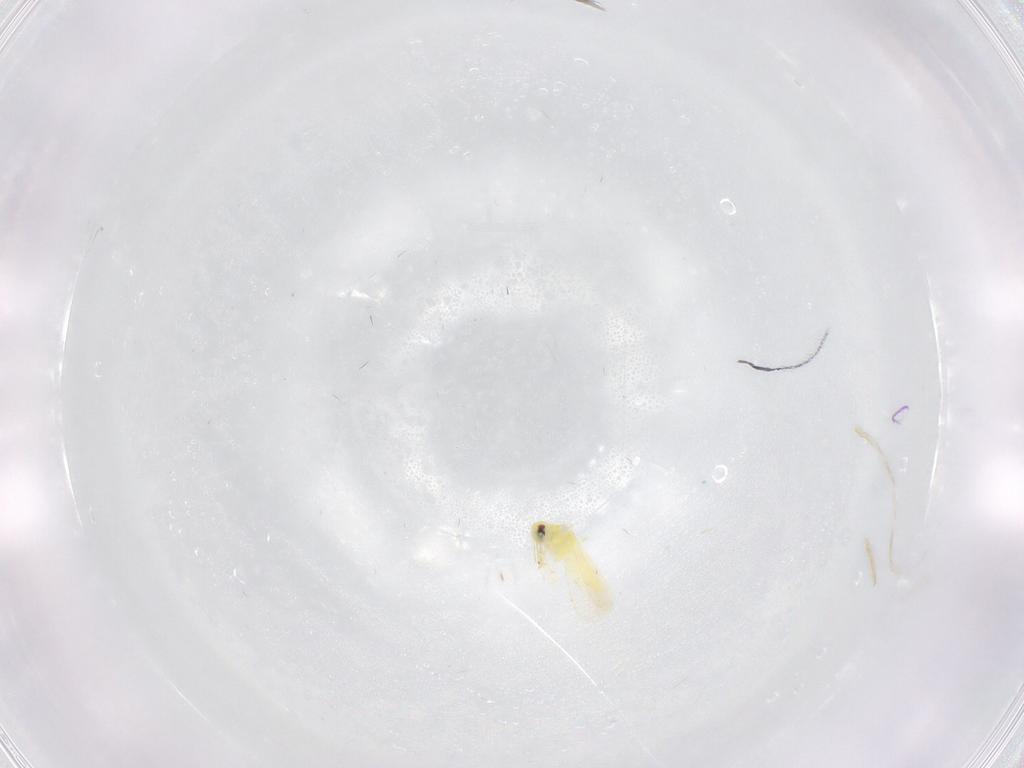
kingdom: Animalia
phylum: Arthropoda
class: Insecta
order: Hemiptera
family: Aleyrodidae
